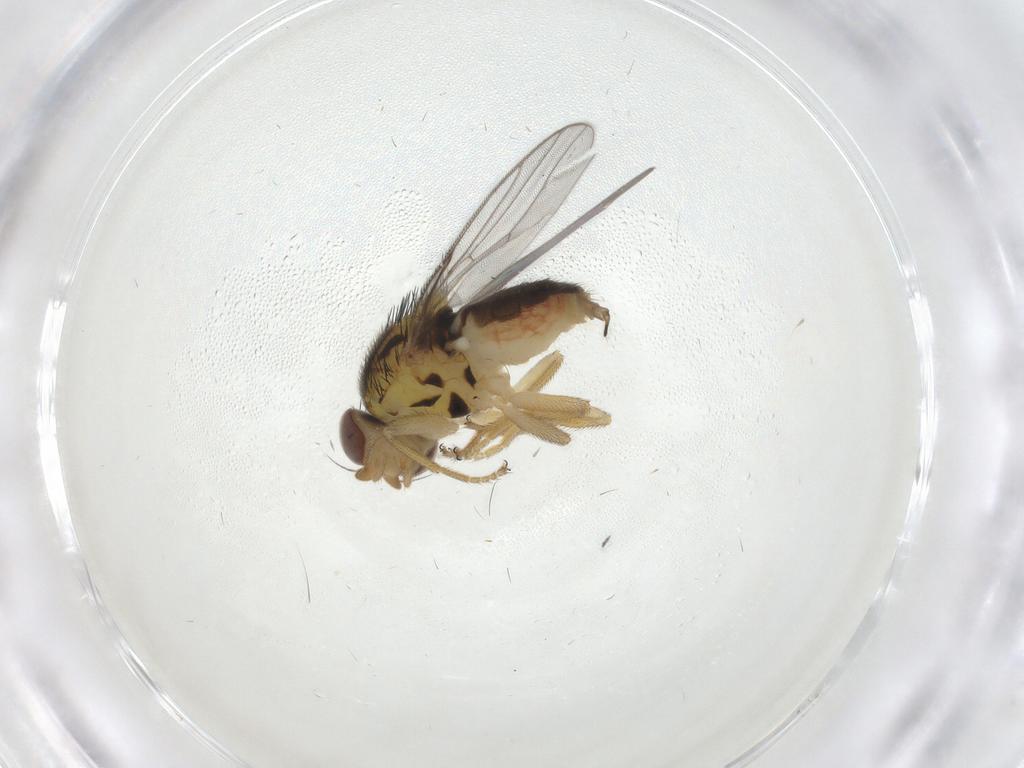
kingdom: Animalia
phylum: Arthropoda
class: Insecta
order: Diptera
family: Chloropidae
